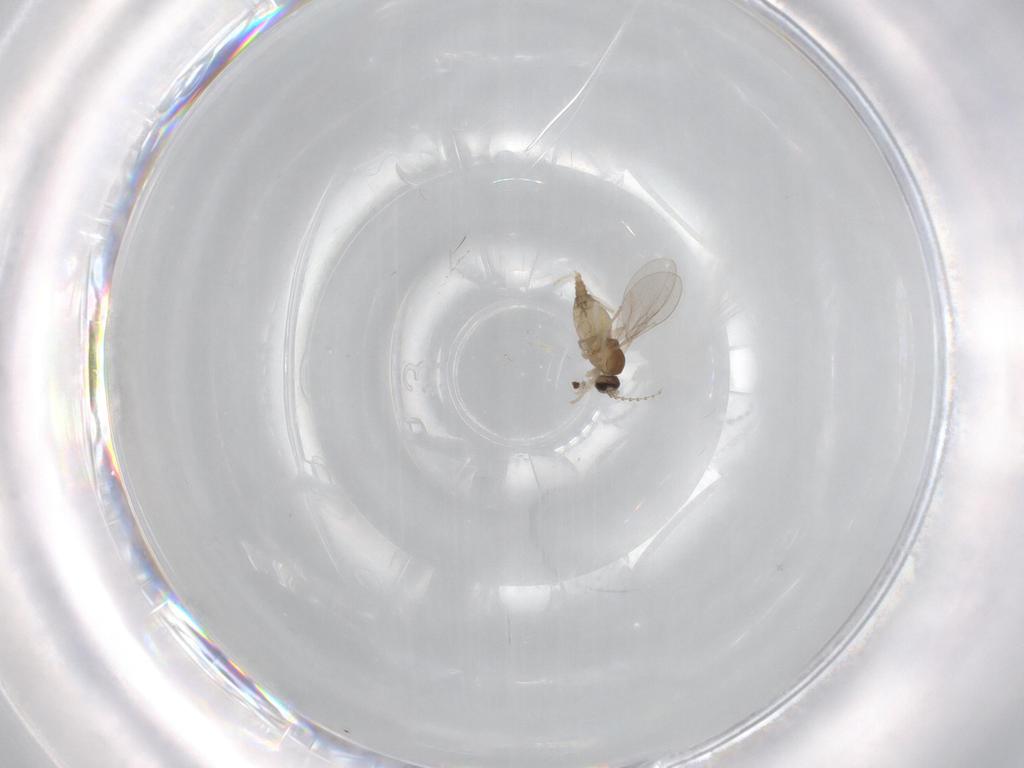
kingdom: Animalia
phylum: Arthropoda
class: Insecta
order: Diptera
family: Cecidomyiidae
